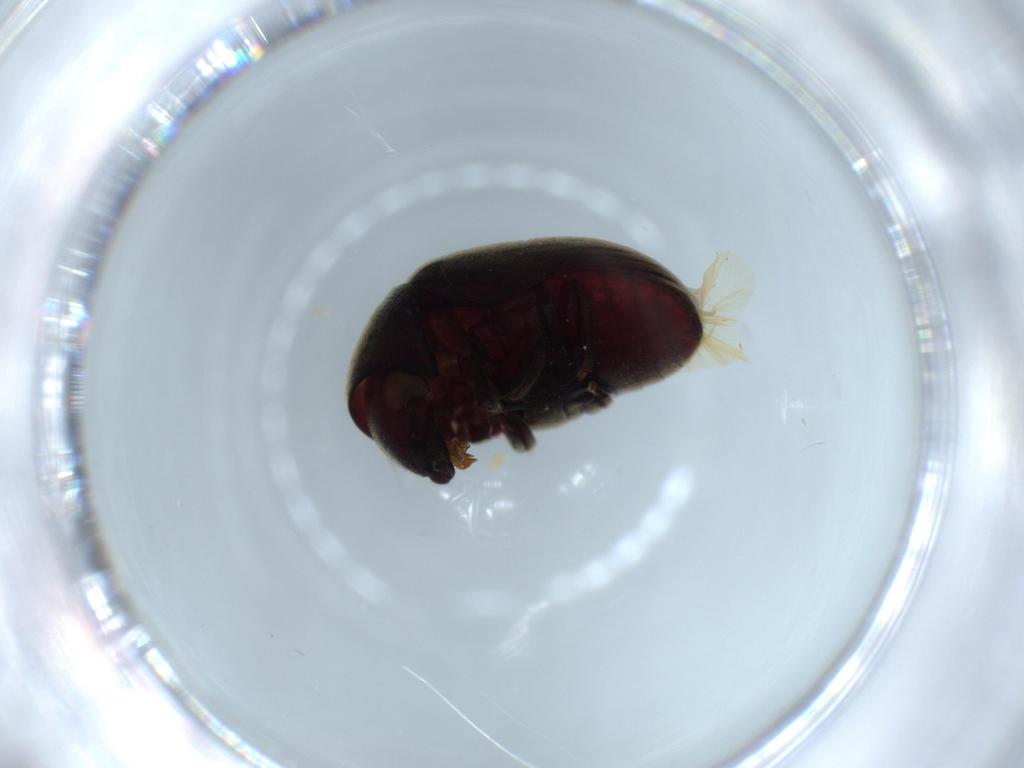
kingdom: Animalia
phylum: Arthropoda
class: Insecta
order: Coleoptera
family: Ptinidae
